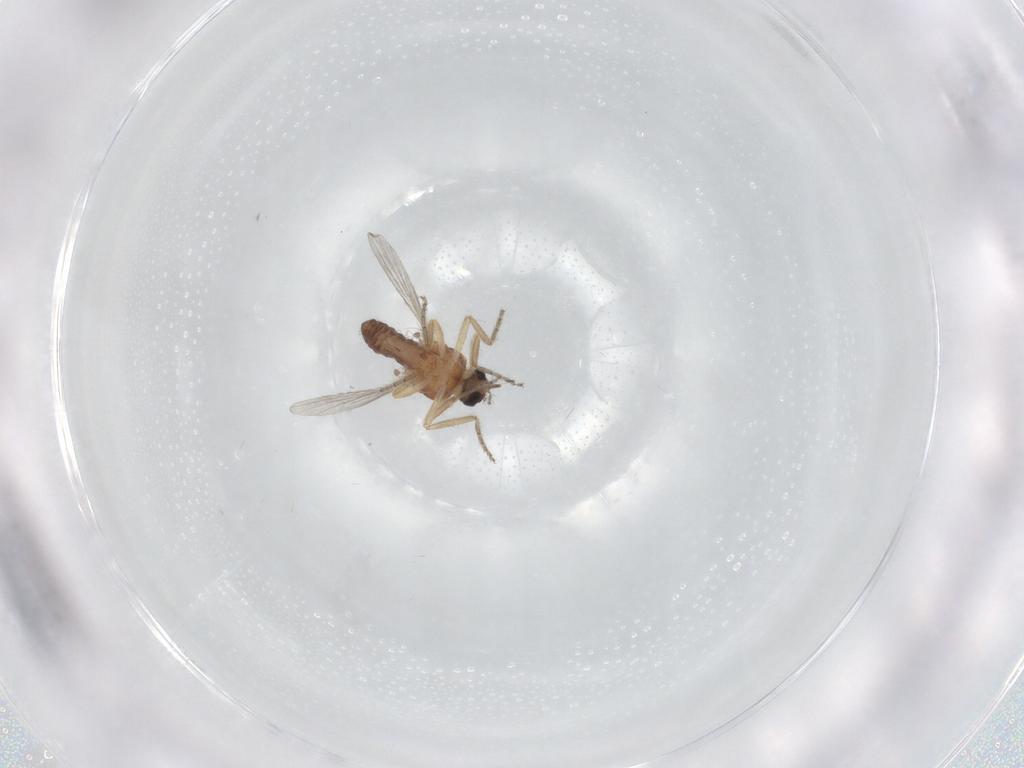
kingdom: Animalia
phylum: Arthropoda
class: Insecta
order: Diptera
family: Ceratopogonidae
